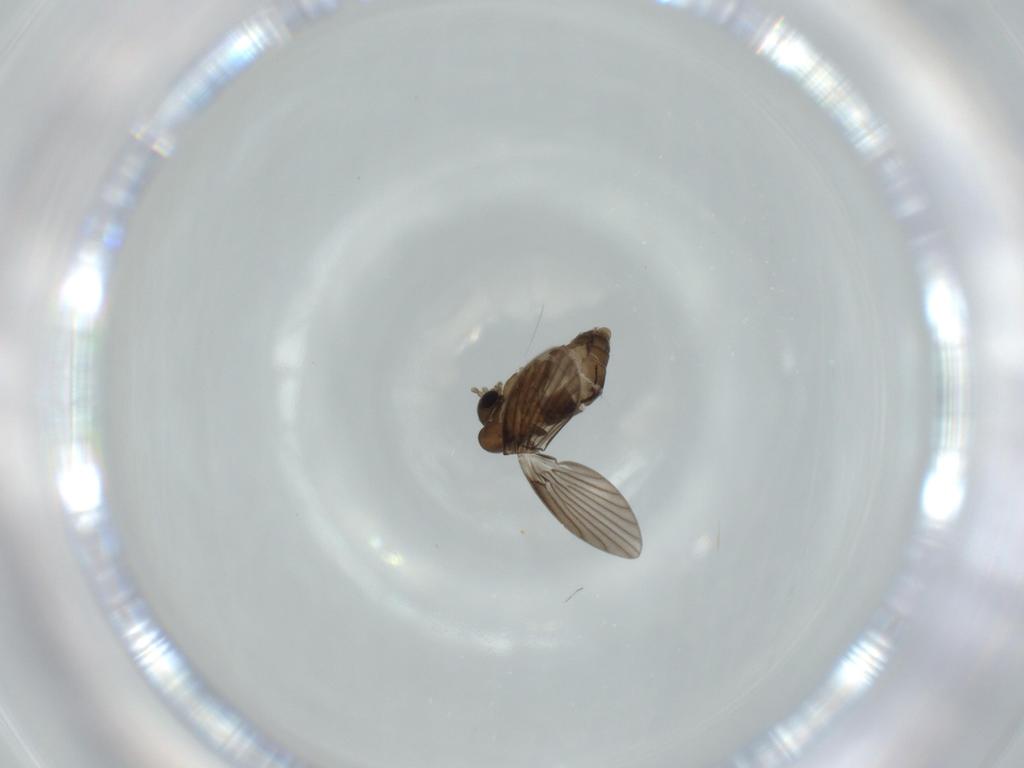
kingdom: Animalia
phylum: Arthropoda
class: Insecta
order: Diptera
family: Psychodidae
